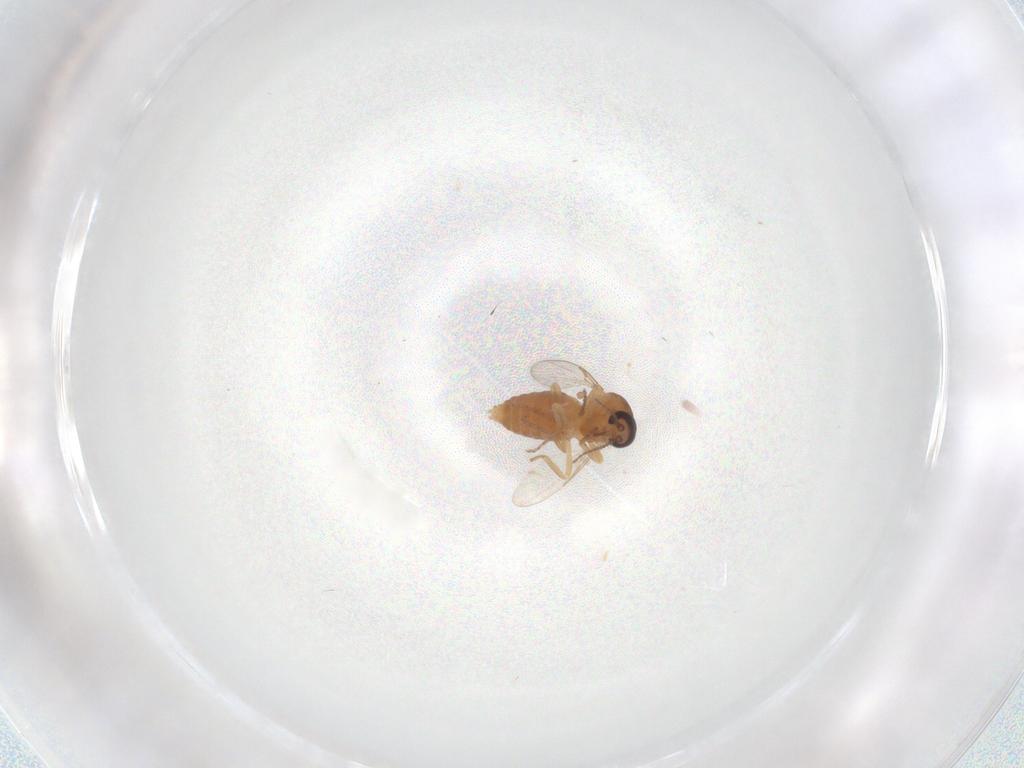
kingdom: Animalia
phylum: Arthropoda
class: Insecta
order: Diptera
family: Ceratopogonidae
